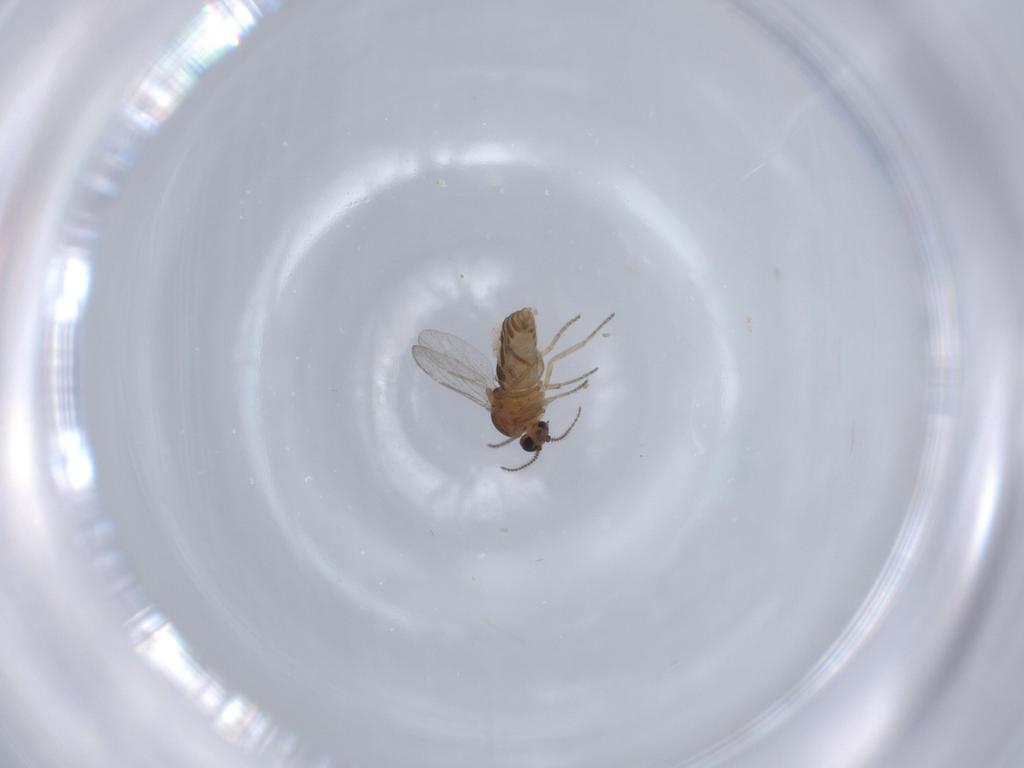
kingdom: Animalia
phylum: Arthropoda
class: Insecta
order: Diptera
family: Ceratopogonidae
